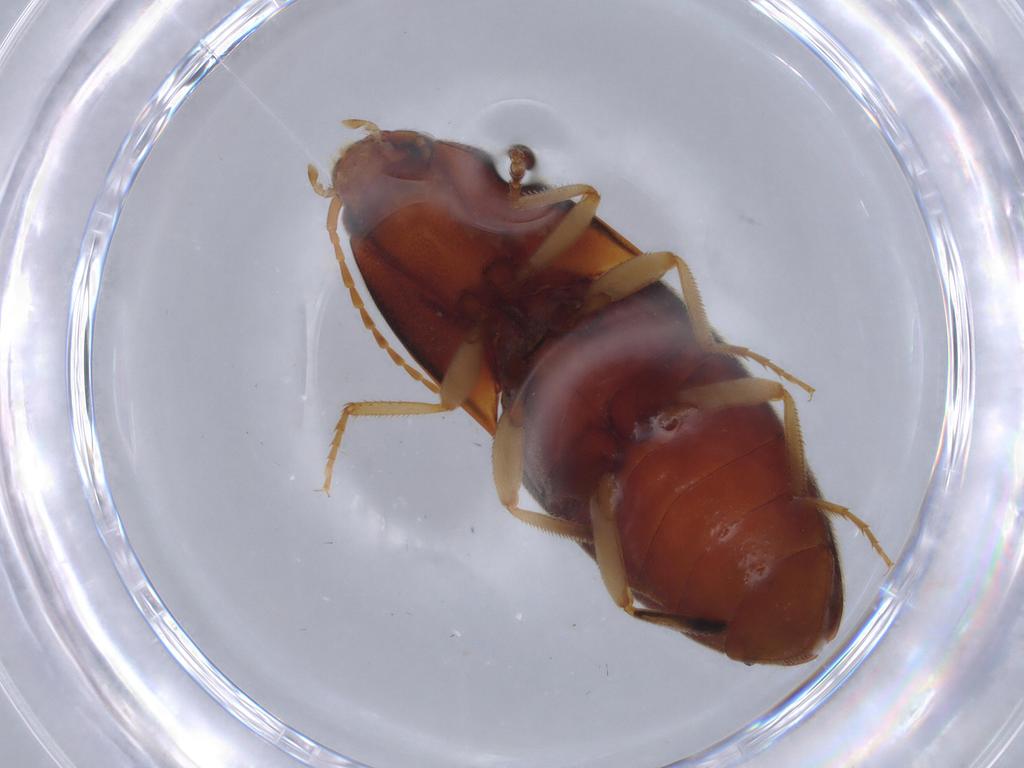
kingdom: Animalia
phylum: Arthropoda
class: Insecta
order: Coleoptera
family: Elateridae
